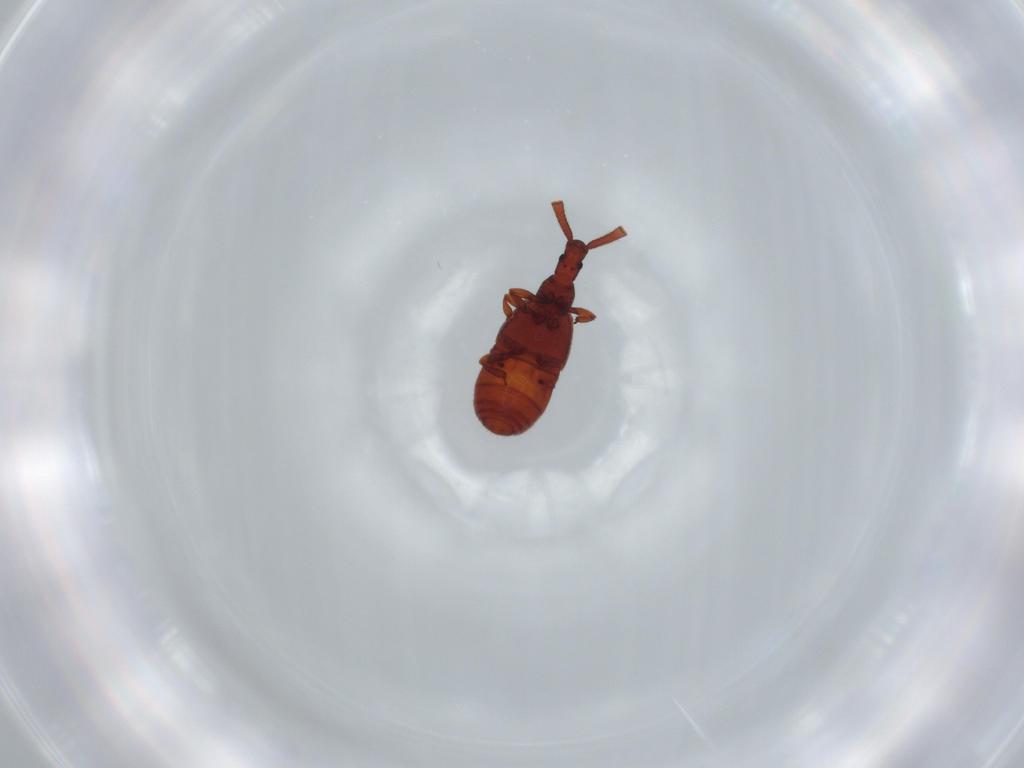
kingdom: Animalia
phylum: Arthropoda
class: Insecta
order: Coleoptera
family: Staphylinidae
